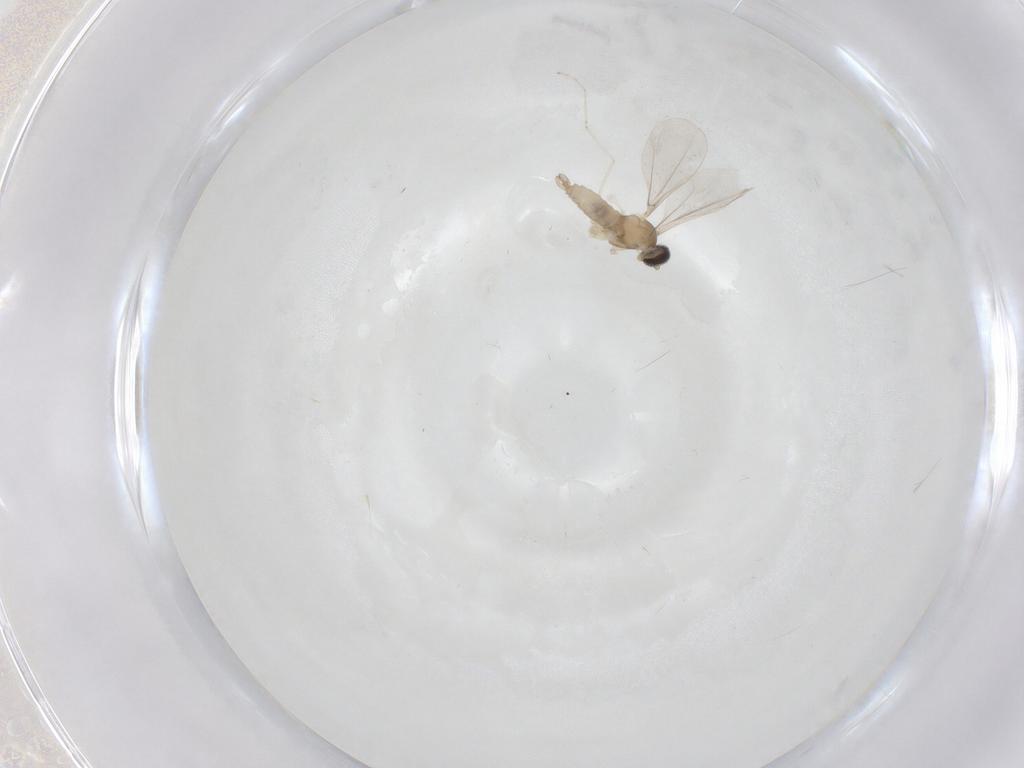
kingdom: Animalia
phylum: Arthropoda
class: Insecta
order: Diptera
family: Cecidomyiidae
